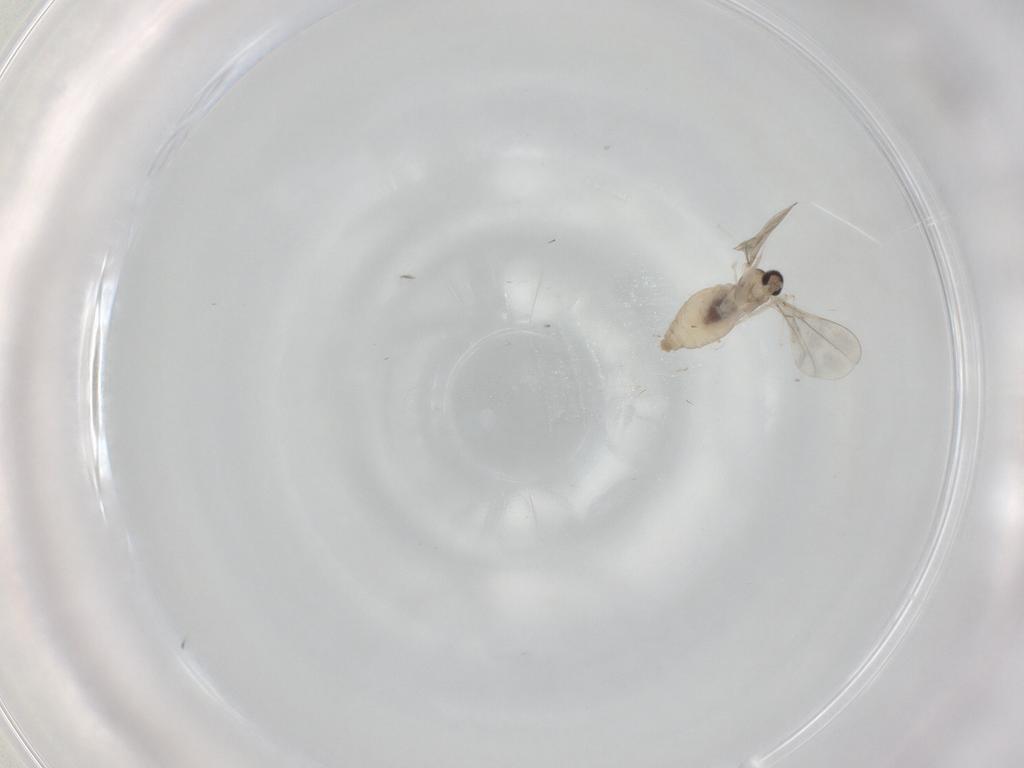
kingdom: Animalia
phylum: Arthropoda
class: Insecta
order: Diptera
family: Cecidomyiidae
